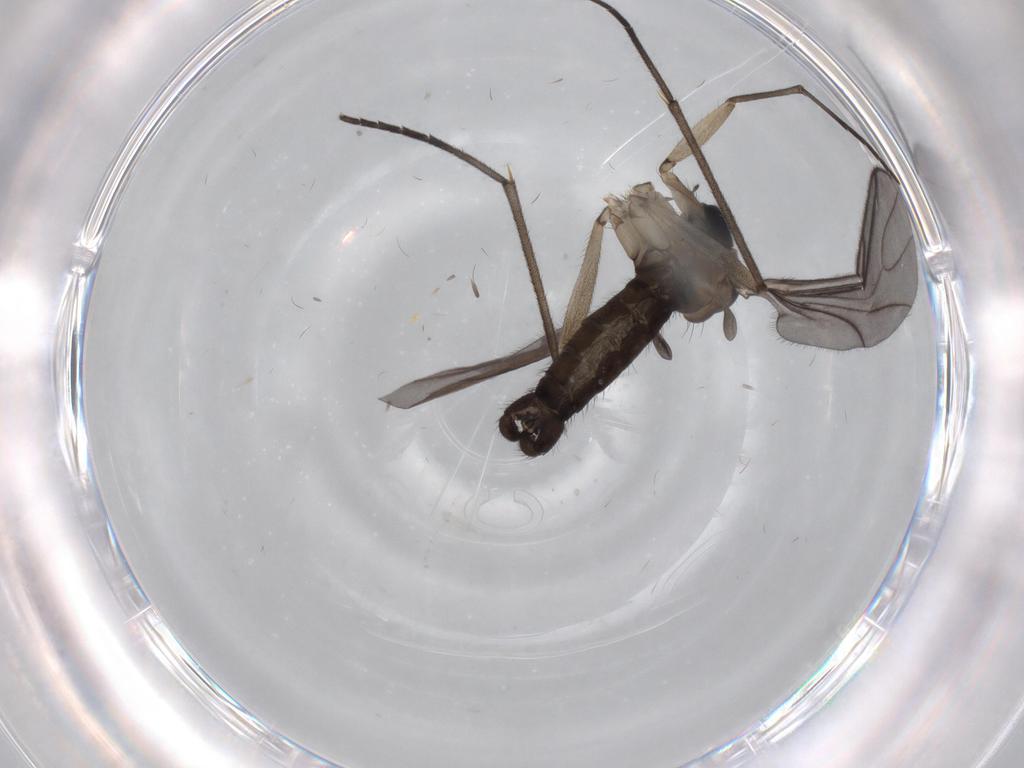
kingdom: Animalia
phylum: Arthropoda
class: Insecta
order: Diptera
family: Sciaridae
